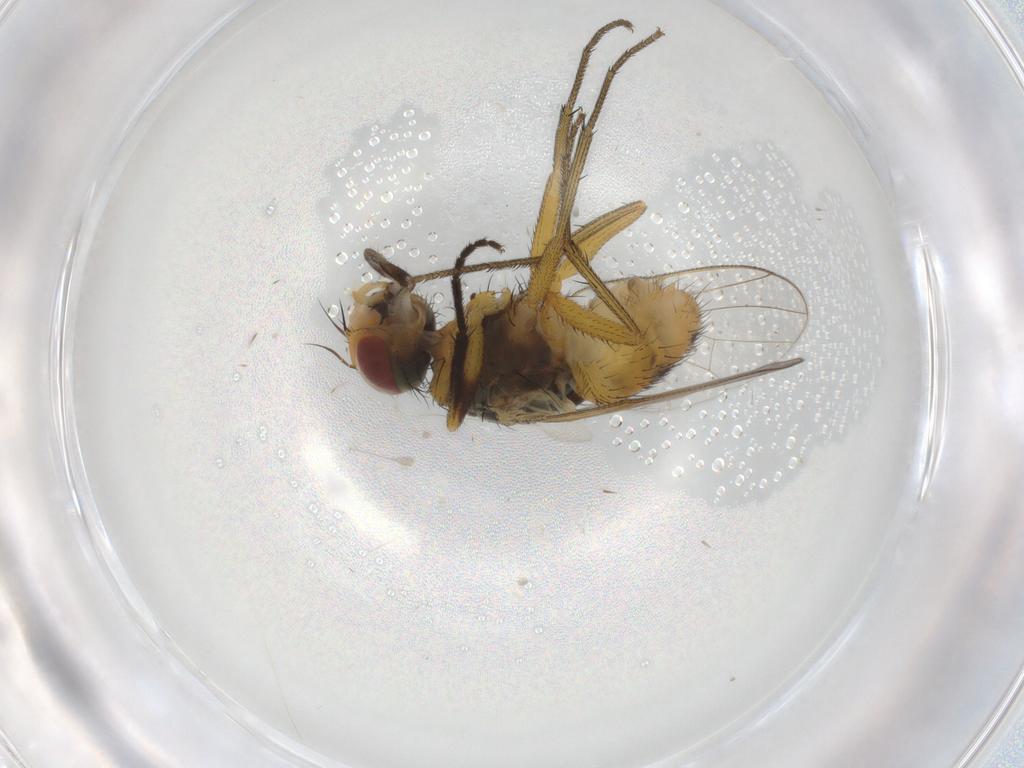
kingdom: Animalia
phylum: Arthropoda
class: Insecta
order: Diptera
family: Muscidae
